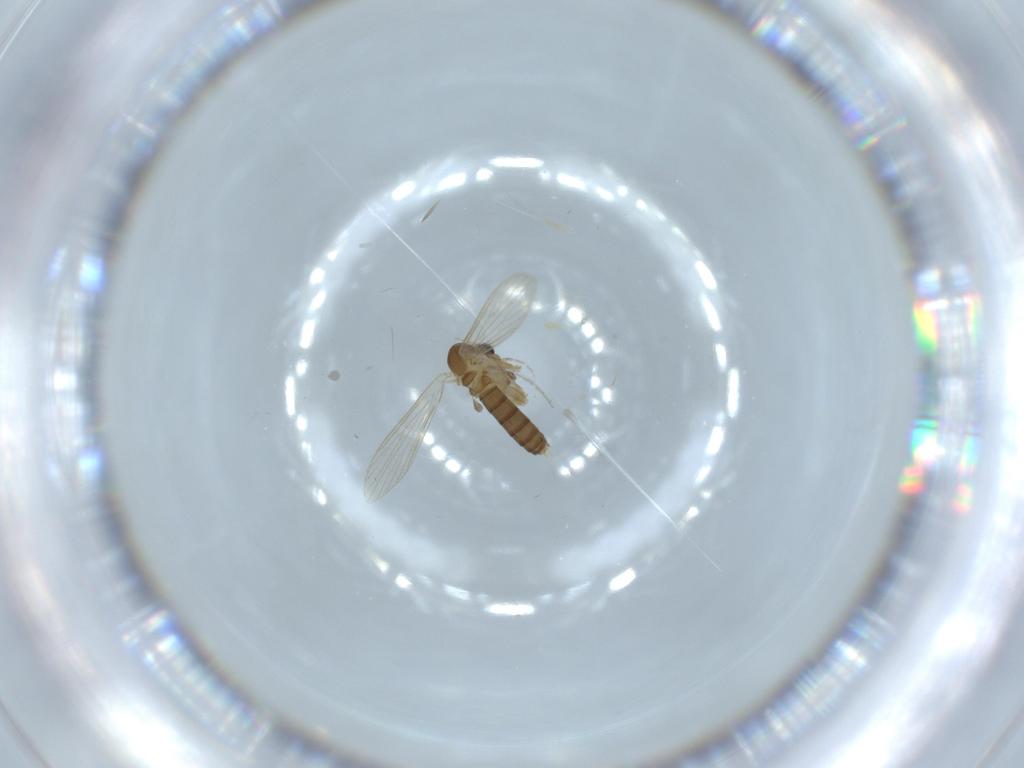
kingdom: Animalia
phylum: Arthropoda
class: Insecta
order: Diptera
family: Psychodidae
